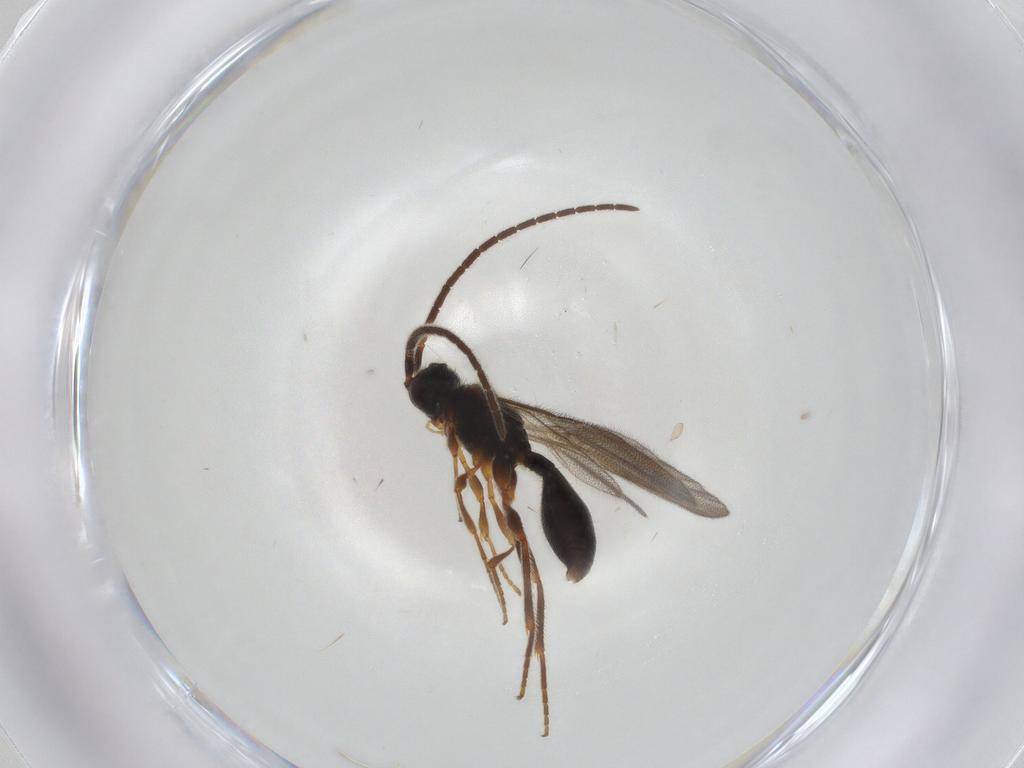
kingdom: Animalia
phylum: Arthropoda
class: Insecta
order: Hymenoptera
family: Diapriidae
